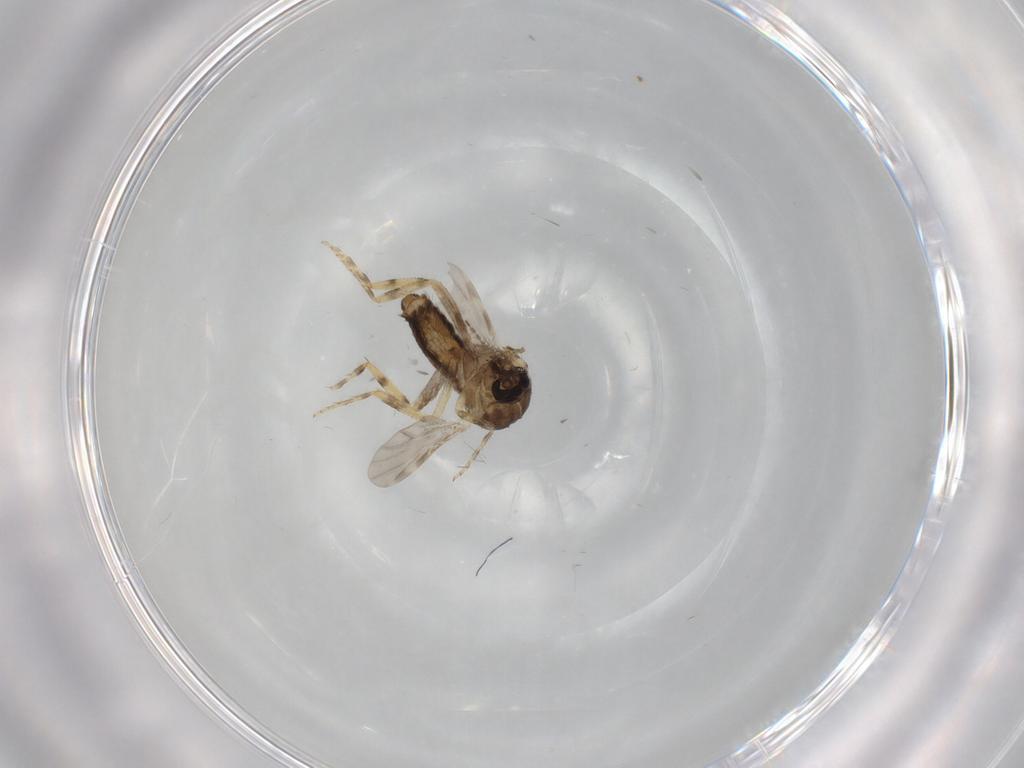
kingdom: Animalia
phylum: Arthropoda
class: Insecta
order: Diptera
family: Ceratopogonidae
